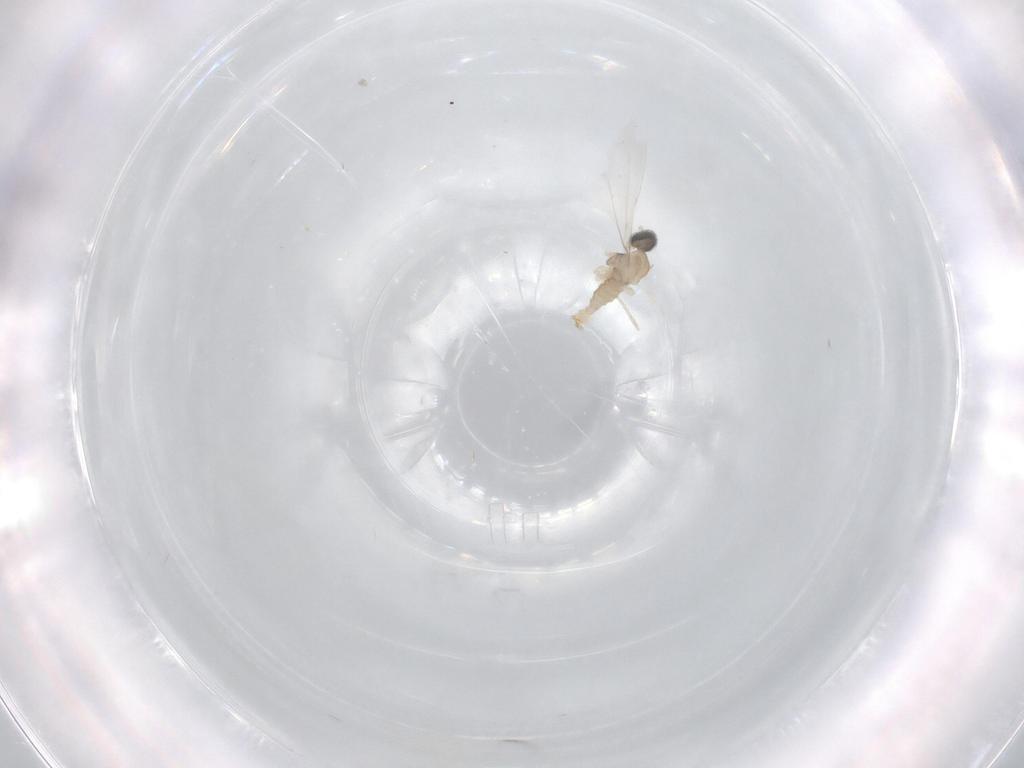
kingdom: Animalia
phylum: Arthropoda
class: Insecta
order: Diptera
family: Cecidomyiidae
